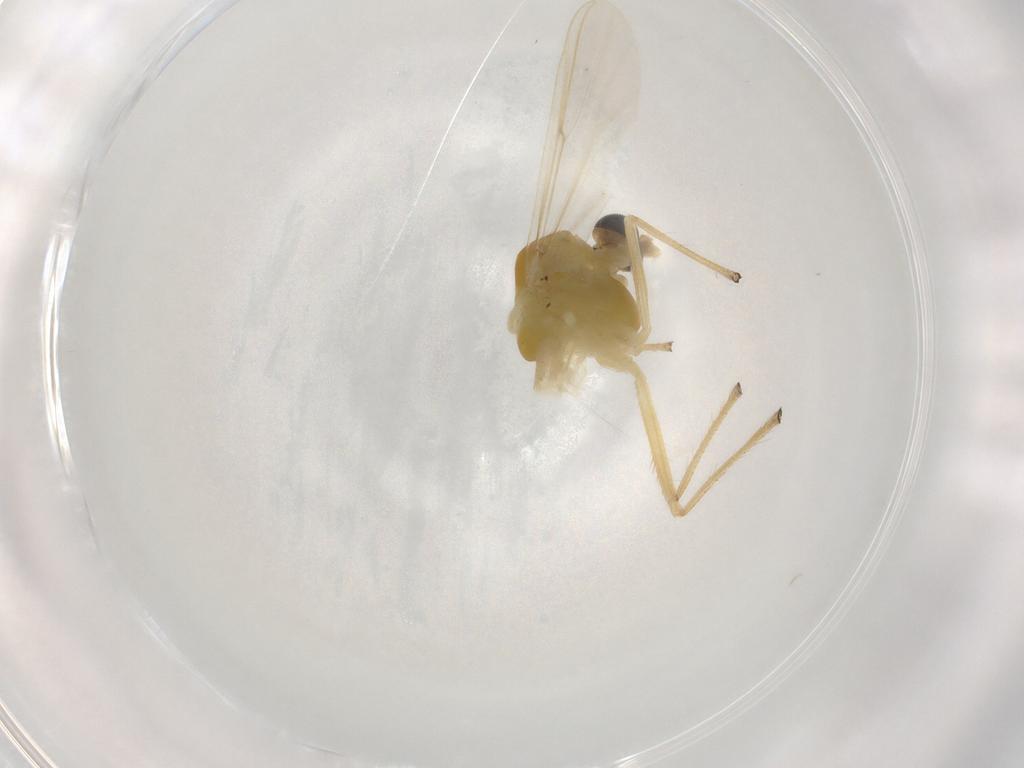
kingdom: Animalia
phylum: Arthropoda
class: Insecta
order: Diptera
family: Chironomidae
